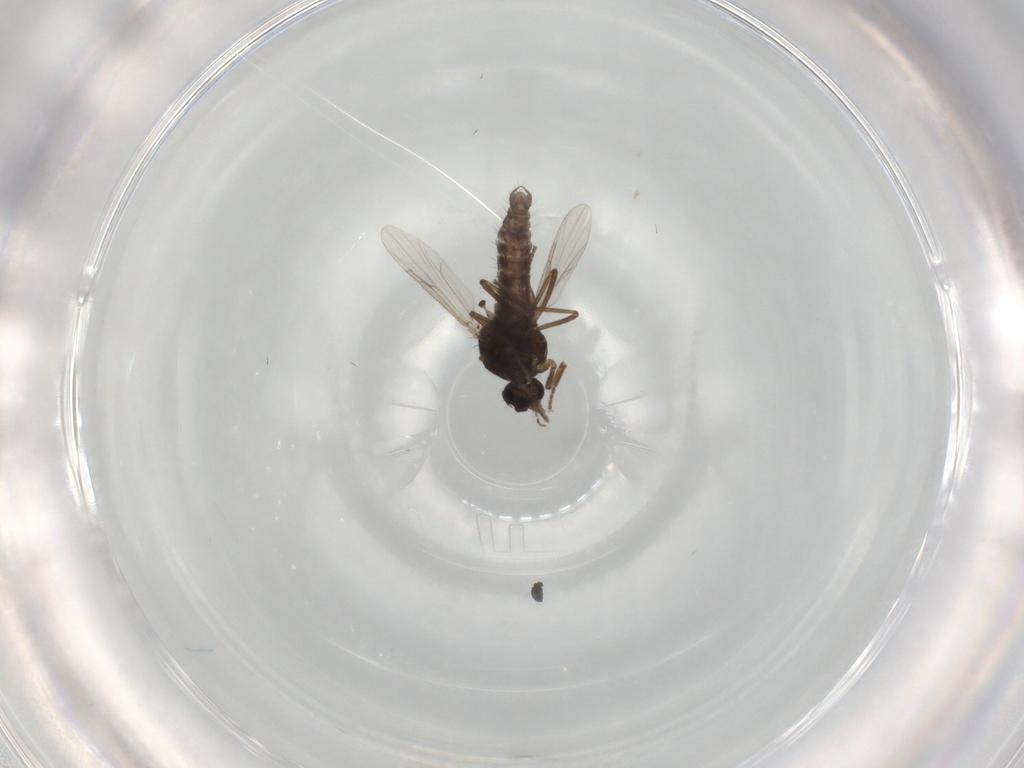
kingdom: Animalia
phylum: Arthropoda
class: Insecta
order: Diptera
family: Ceratopogonidae
